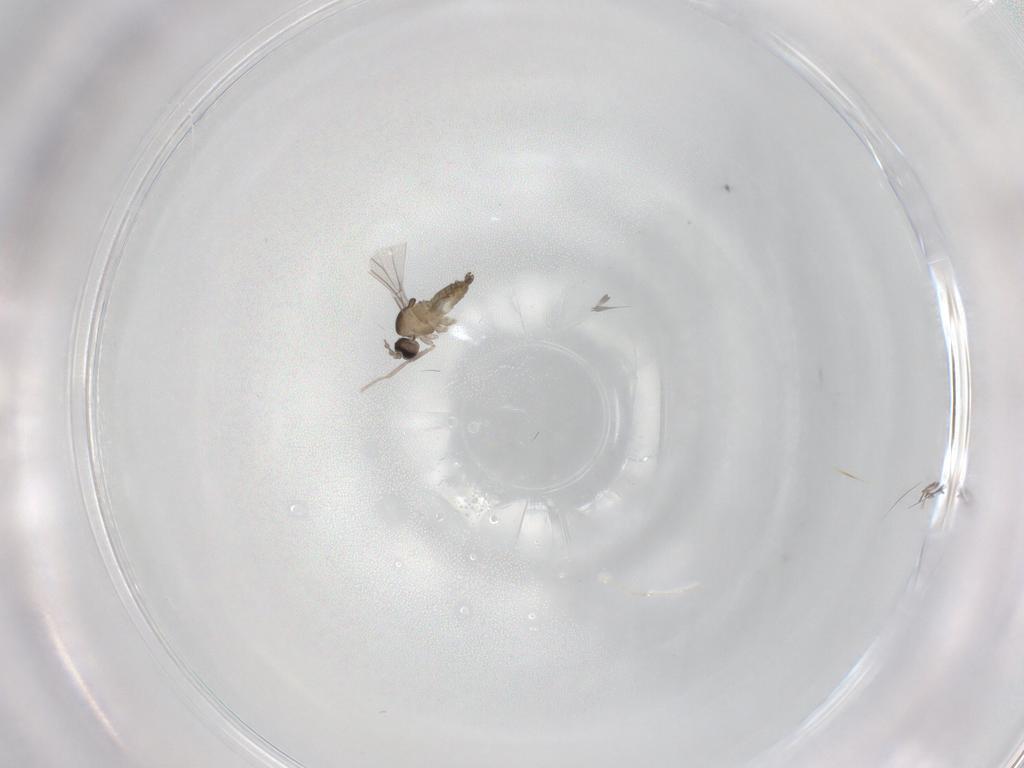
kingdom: Animalia
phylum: Arthropoda
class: Insecta
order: Diptera
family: Cecidomyiidae
